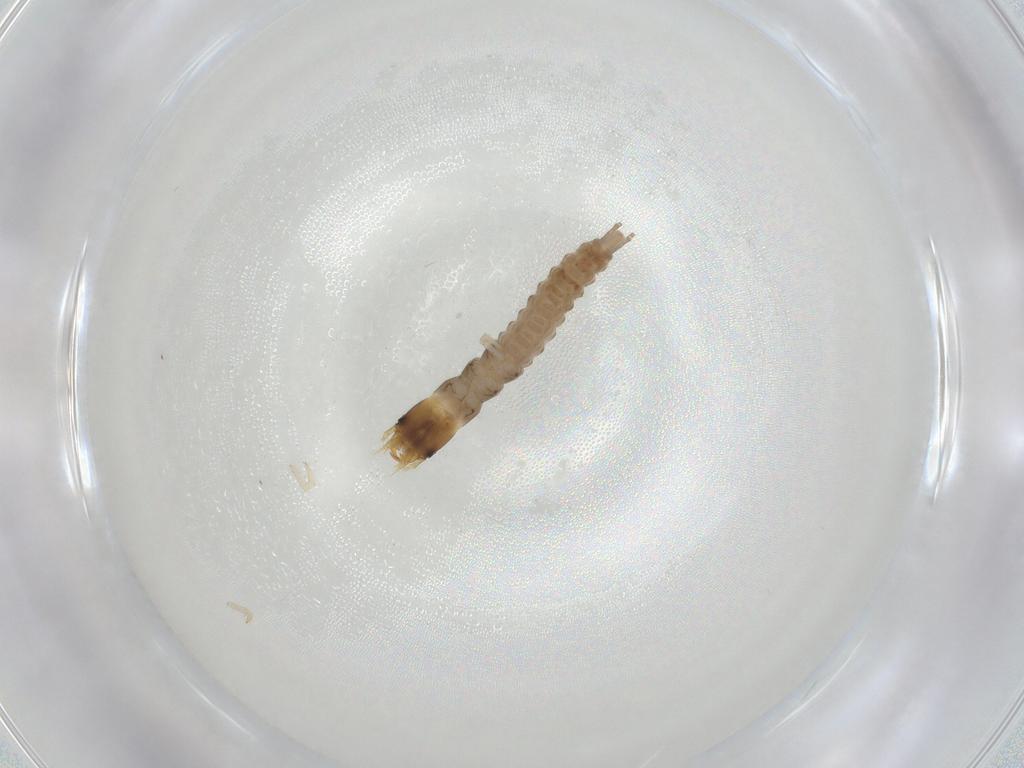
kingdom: Animalia
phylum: Arthropoda
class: Insecta
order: Coleoptera
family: Carabidae
